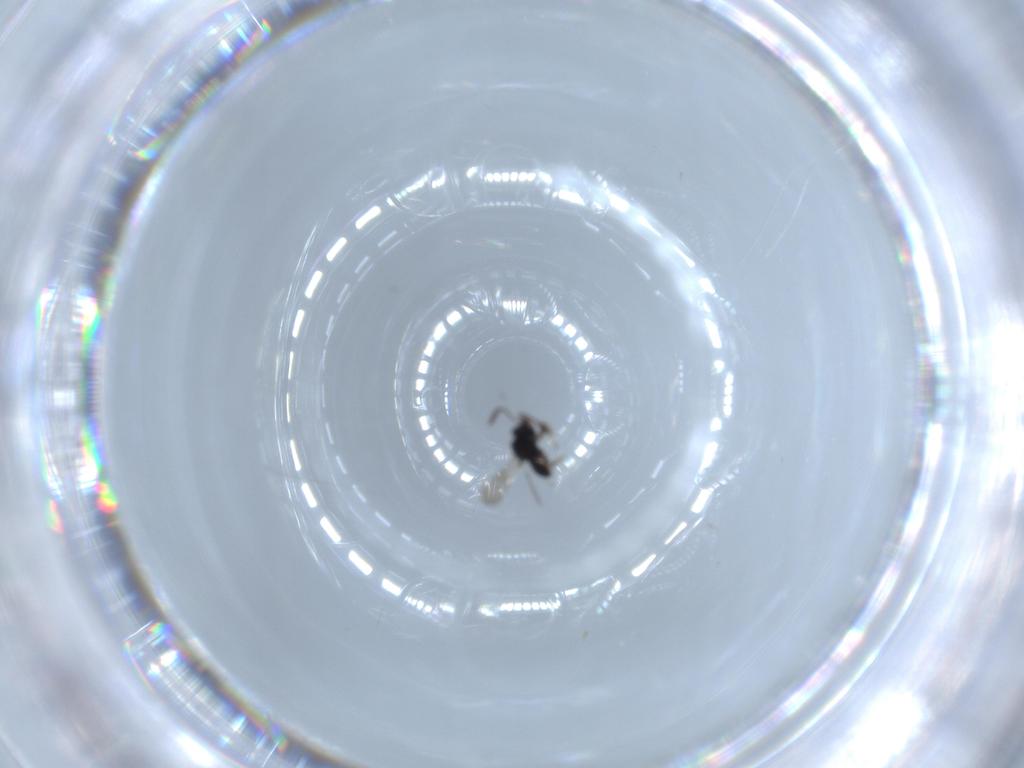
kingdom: Animalia
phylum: Arthropoda
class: Insecta
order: Hymenoptera
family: Scelionidae
